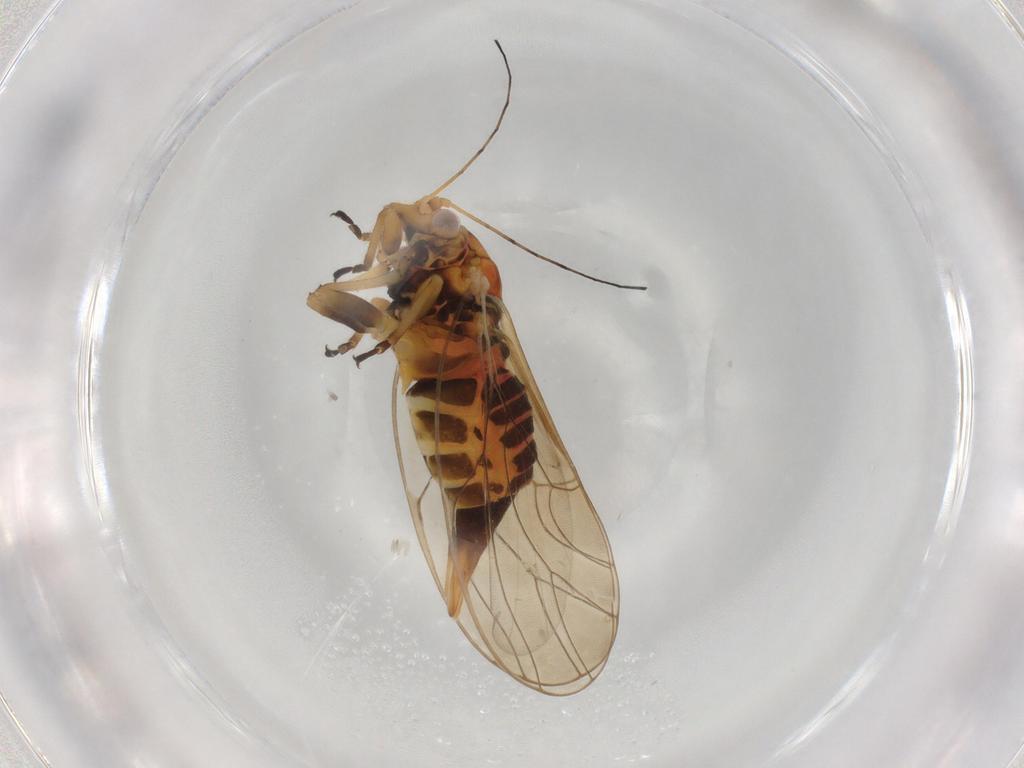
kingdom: Animalia
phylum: Arthropoda
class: Insecta
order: Hemiptera
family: Psyllidae
